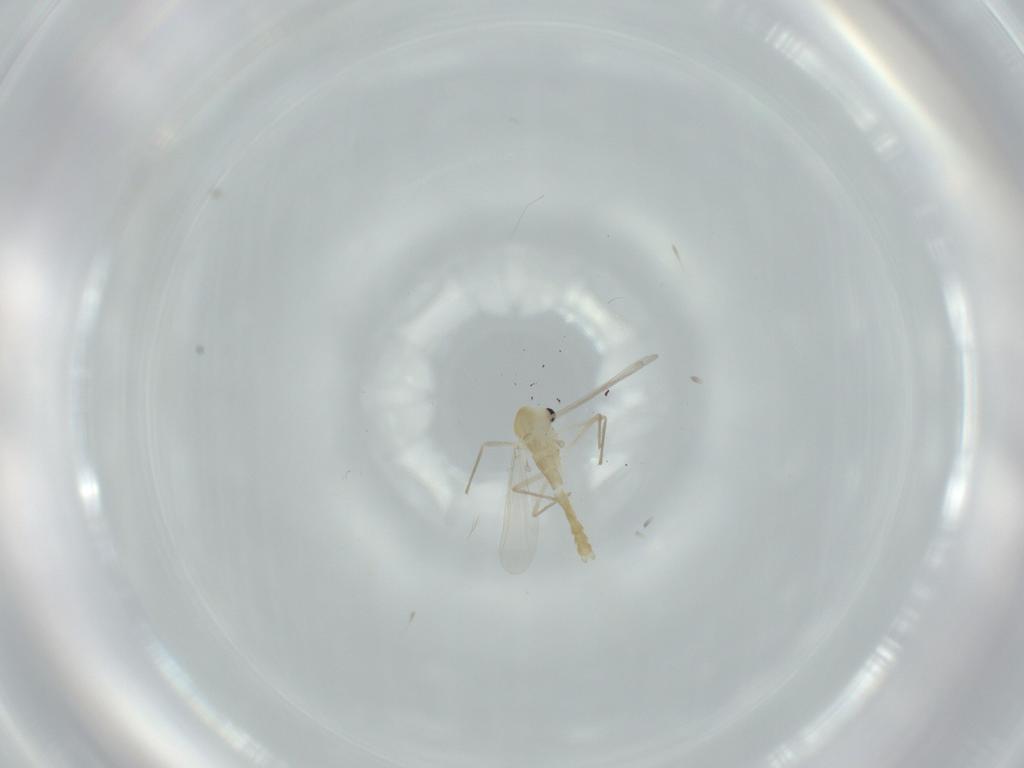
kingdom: Animalia
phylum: Arthropoda
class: Insecta
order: Diptera
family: Chironomidae
